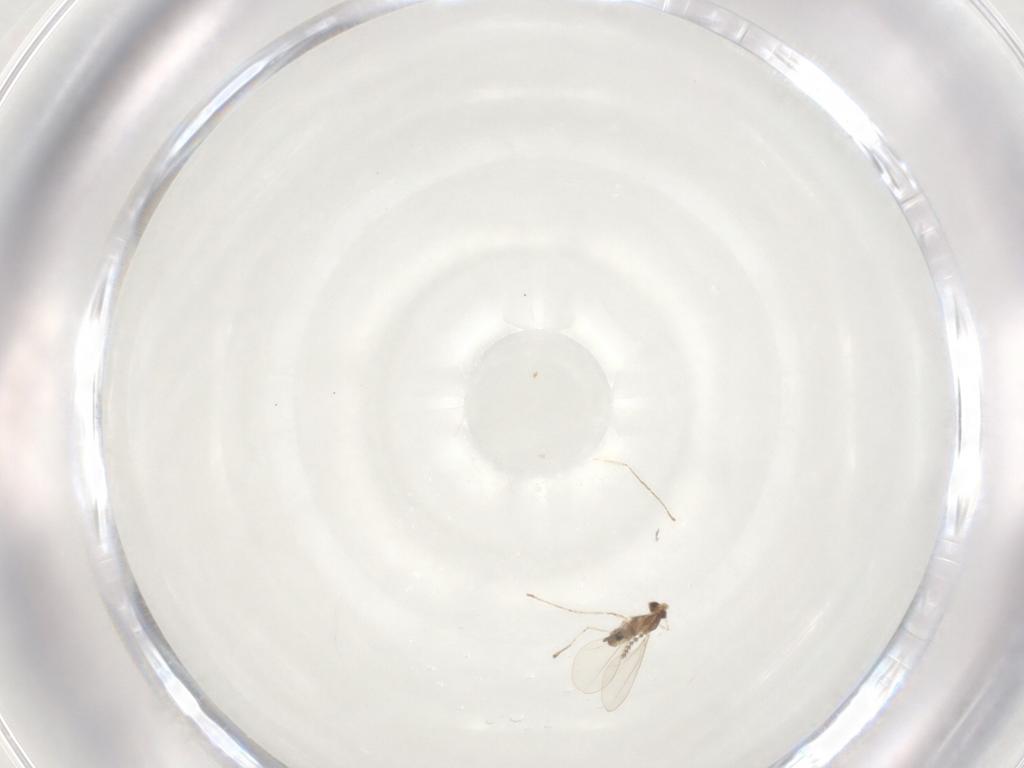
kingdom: Animalia
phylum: Arthropoda
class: Insecta
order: Diptera
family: Cecidomyiidae
